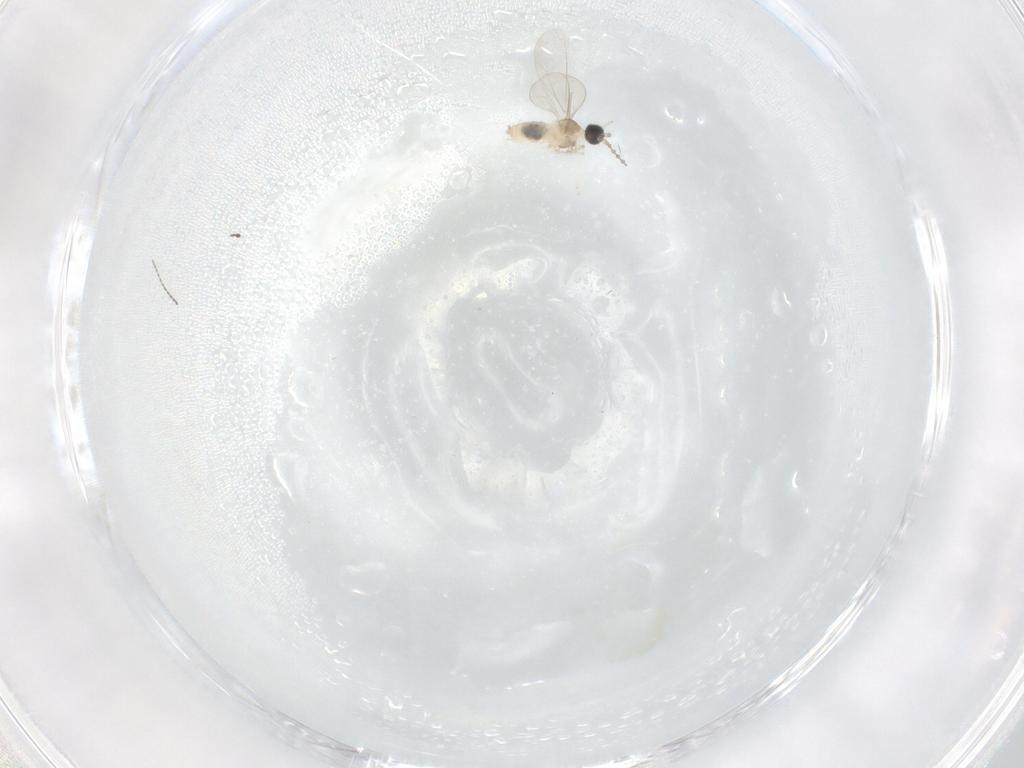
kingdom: Animalia
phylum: Arthropoda
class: Insecta
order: Diptera
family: Cecidomyiidae
